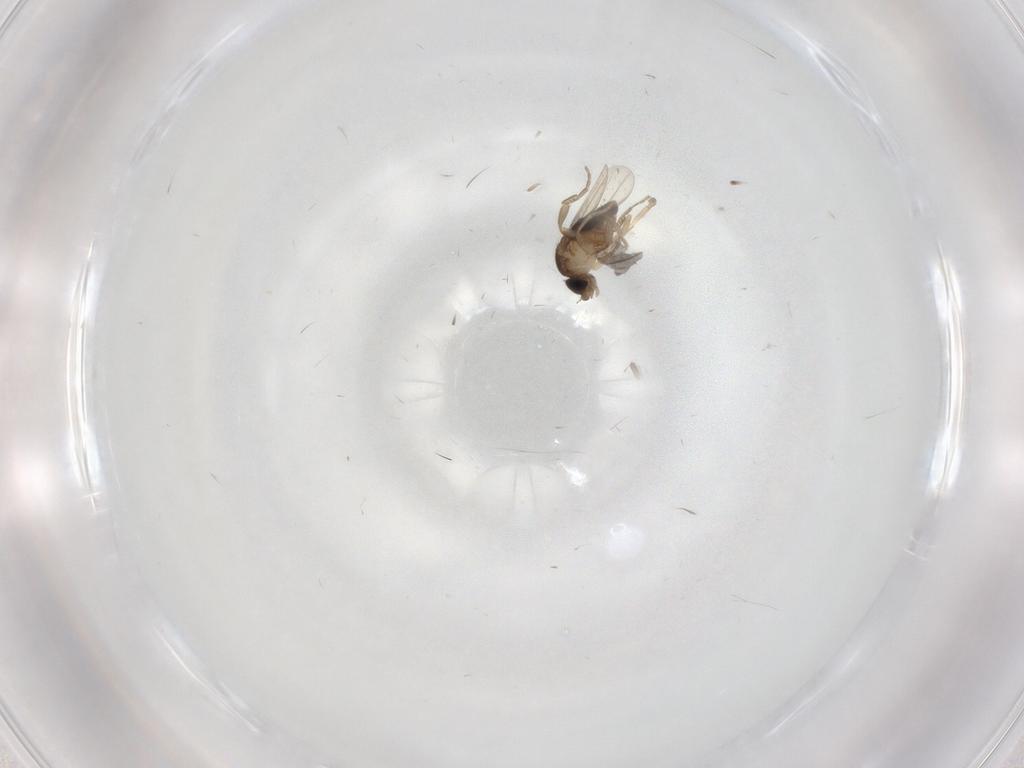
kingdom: Animalia
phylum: Arthropoda
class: Insecta
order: Diptera
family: Phoridae
